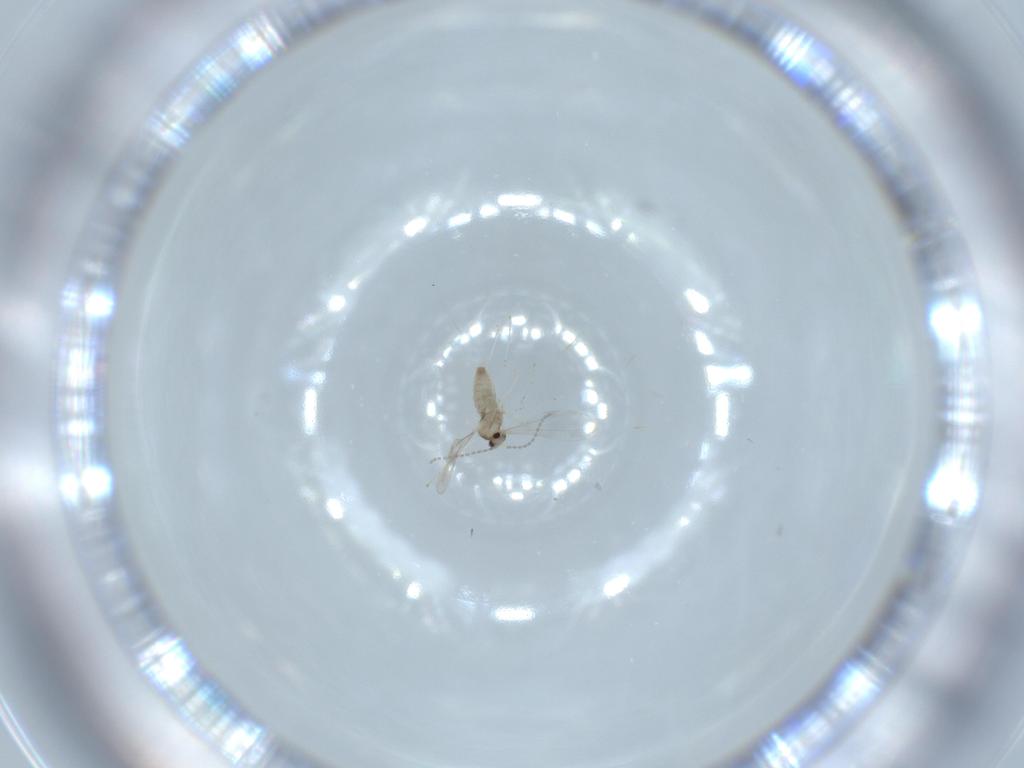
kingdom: Animalia
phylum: Arthropoda
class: Insecta
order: Diptera
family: Cecidomyiidae
